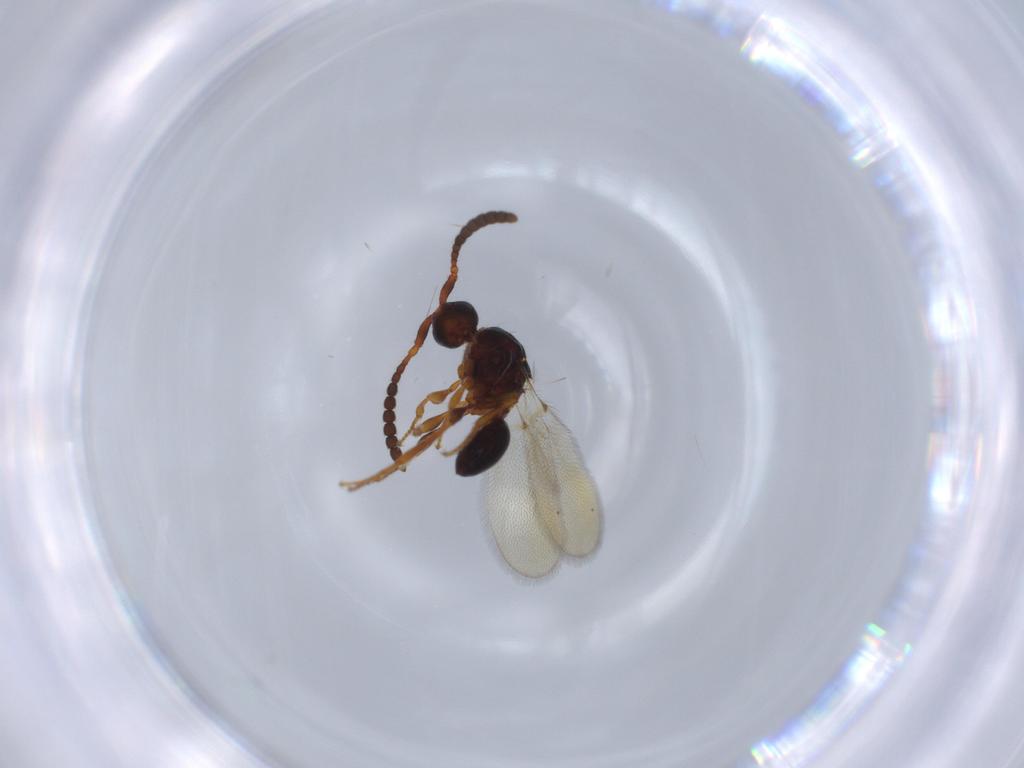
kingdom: Animalia
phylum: Arthropoda
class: Insecta
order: Hymenoptera
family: Diapriidae
